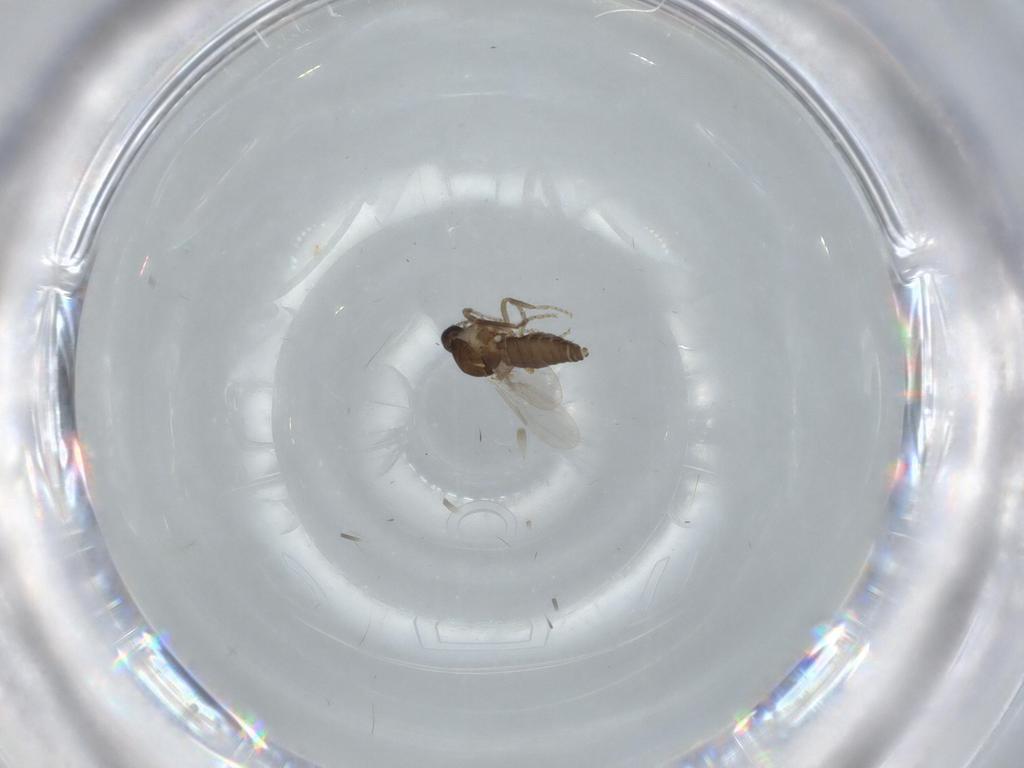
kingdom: Animalia
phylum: Arthropoda
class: Insecta
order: Diptera
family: Ceratopogonidae
